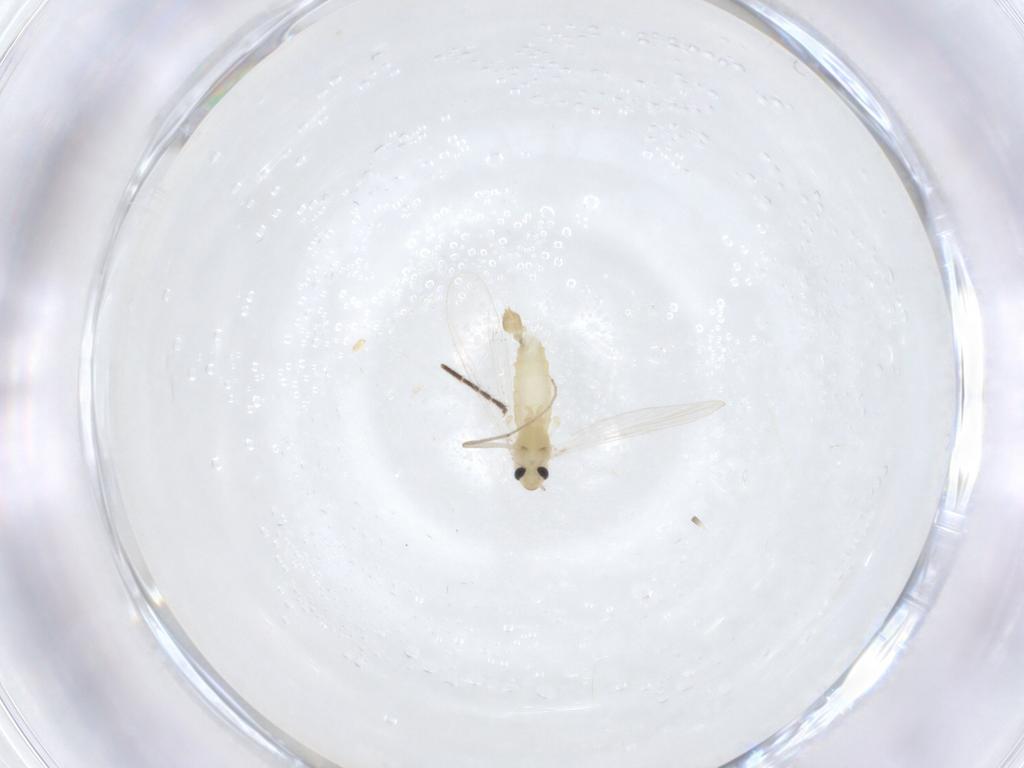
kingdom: Animalia
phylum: Arthropoda
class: Insecta
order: Diptera
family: Chironomidae
